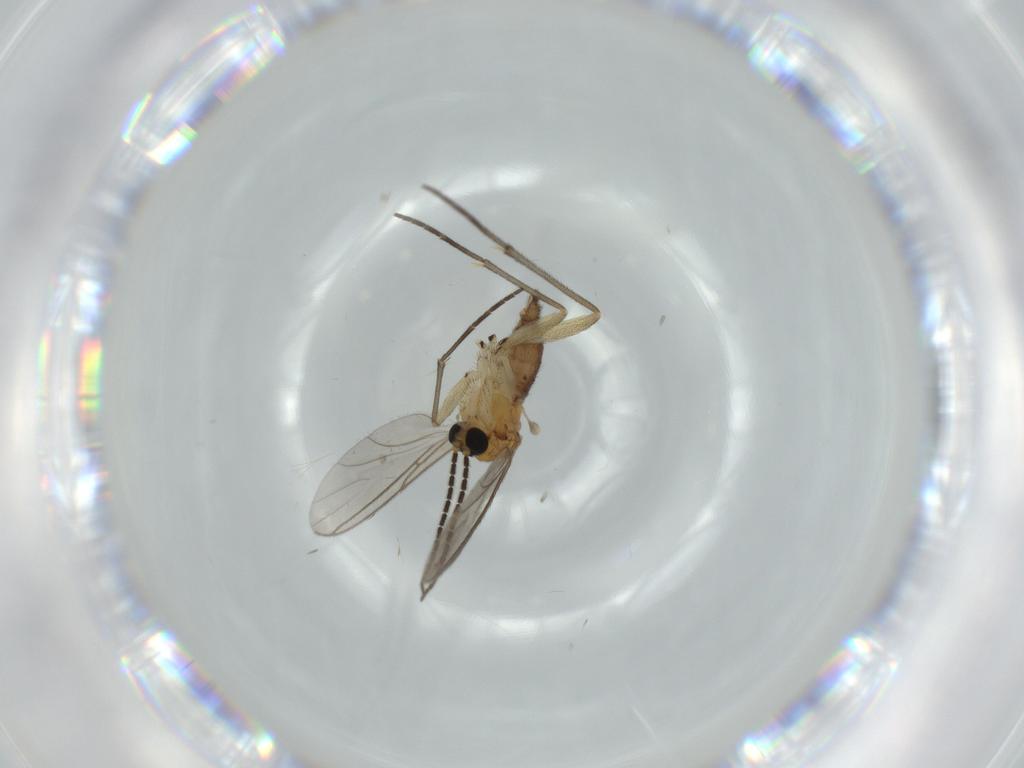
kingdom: Animalia
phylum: Arthropoda
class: Insecta
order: Diptera
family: Sciaridae
